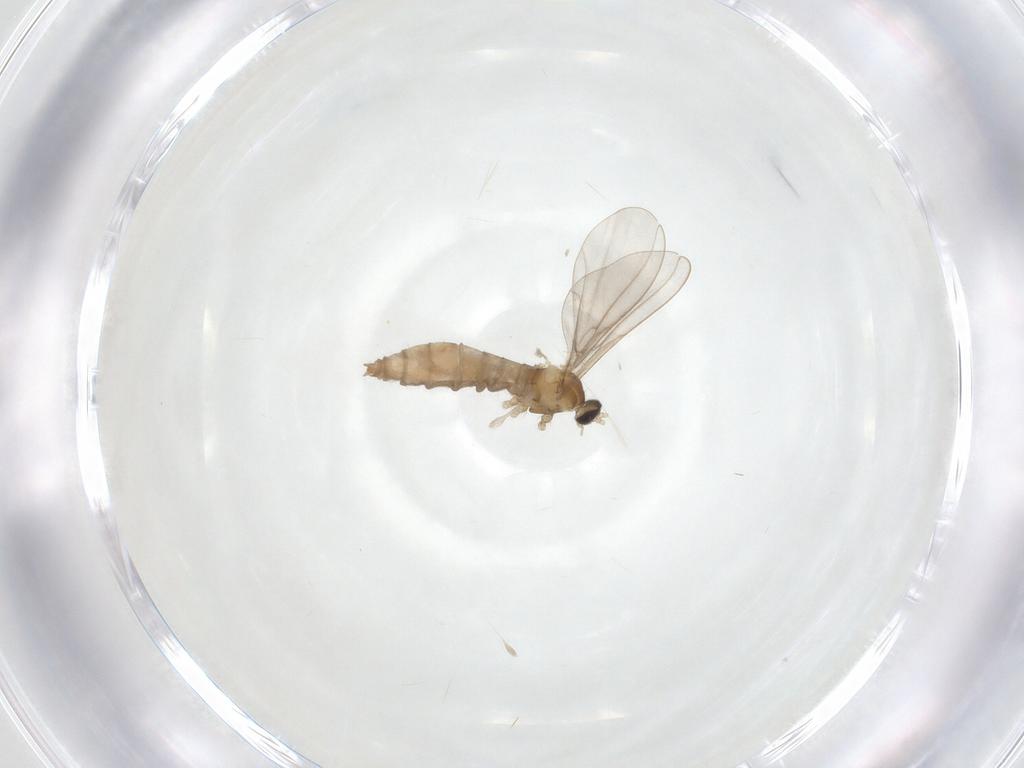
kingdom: Animalia
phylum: Arthropoda
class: Insecta
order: Diptera
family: Cecidomyiidae
